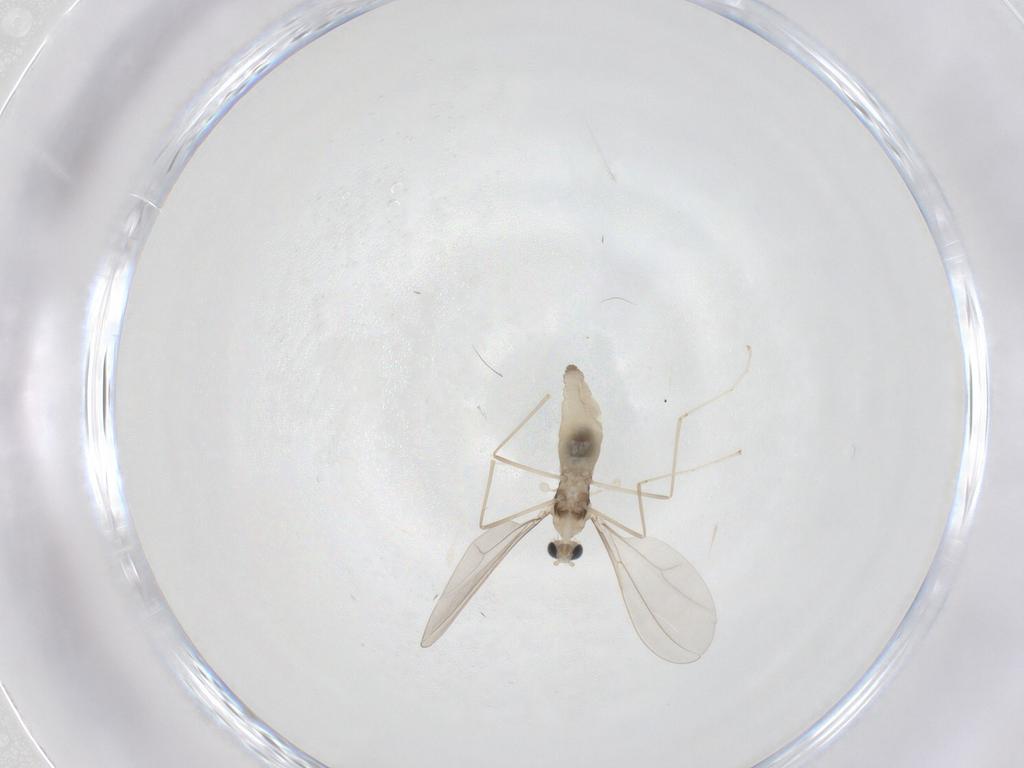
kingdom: Animalia
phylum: Arthropoda
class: Insecta
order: Diptera
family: Cecidomyiidae
